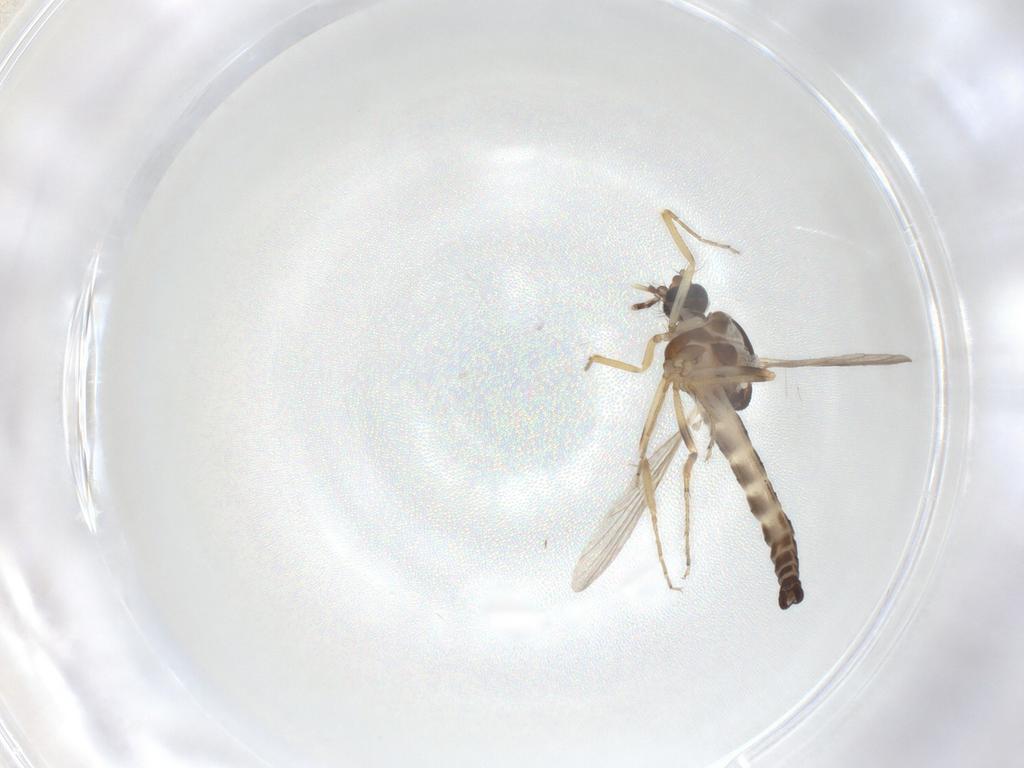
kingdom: Animalia
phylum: Arthropoda
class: Insecta
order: Diptera
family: Ceratopogonidae
